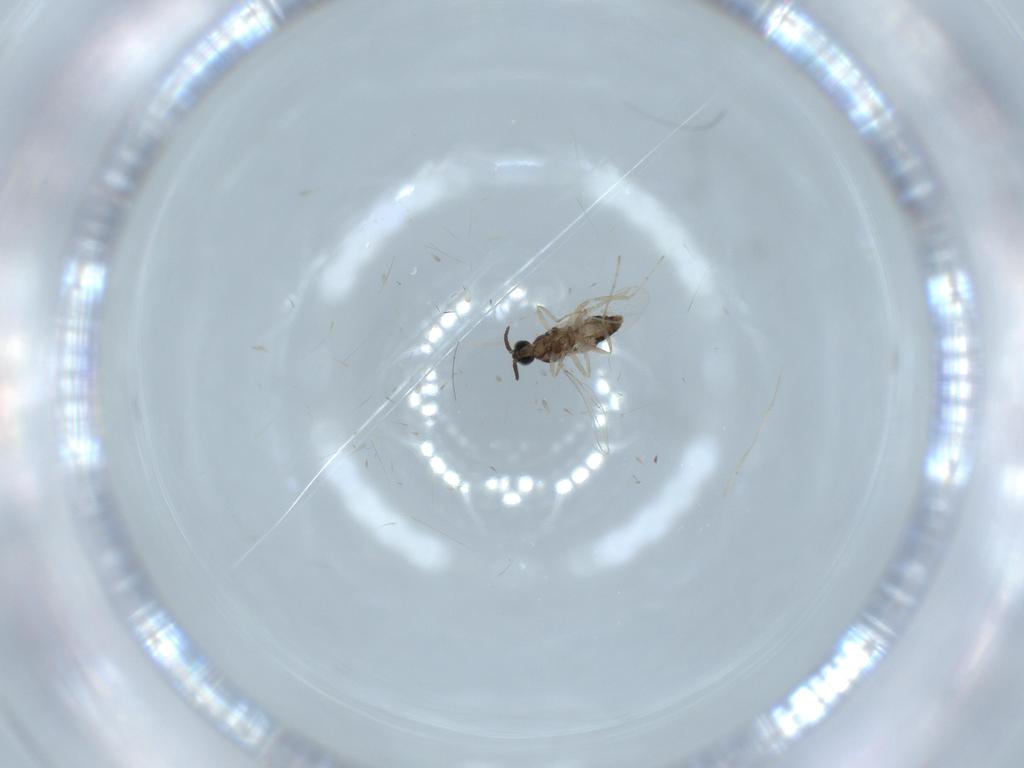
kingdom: Animalia
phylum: Arthropoda
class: Insecta
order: Diptera
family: Cecidomyiidae
